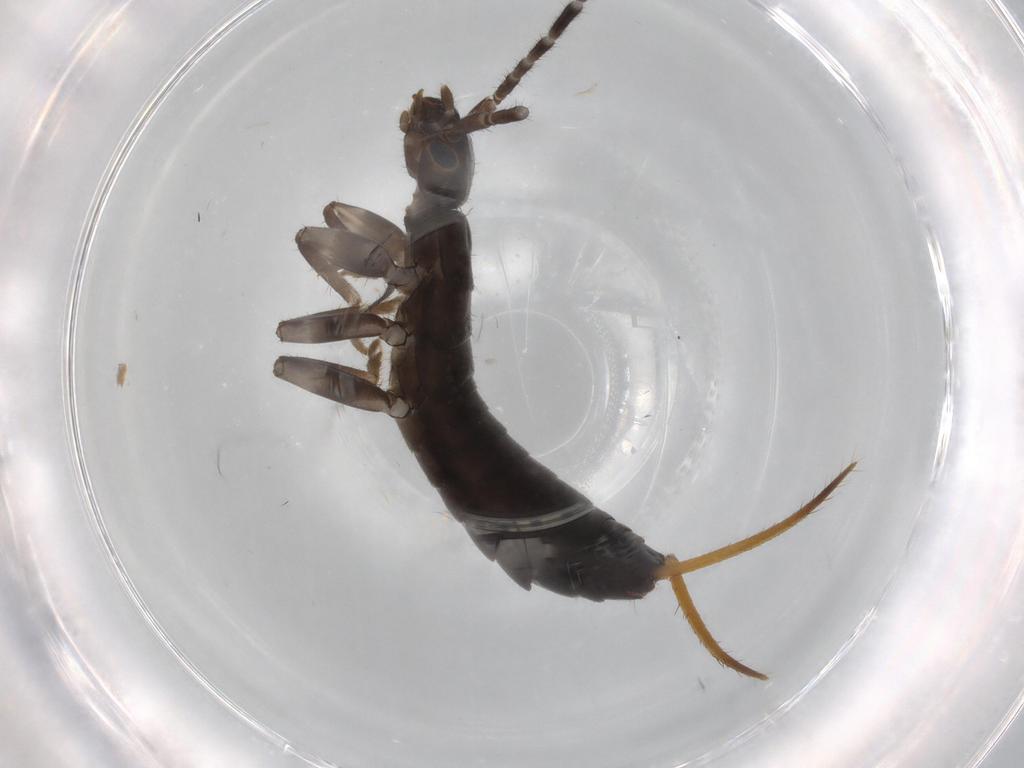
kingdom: Animalia
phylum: Arthropoda
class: Insecta
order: Dermaptera
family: Forficulidae
